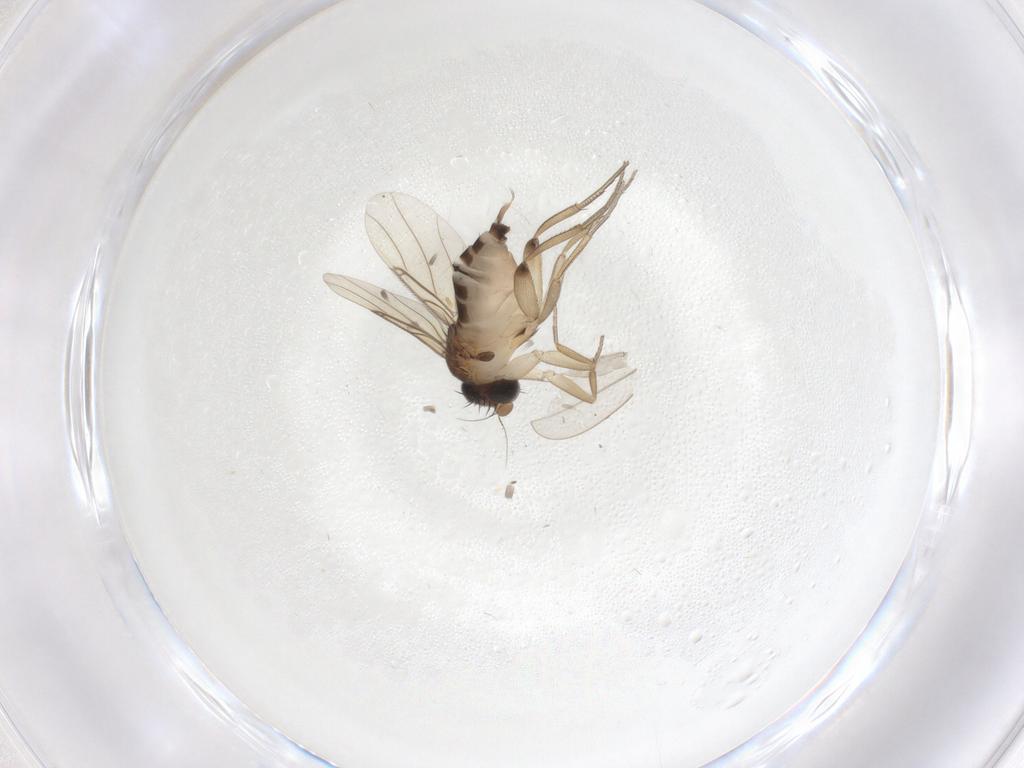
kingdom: Animalia
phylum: Arthropoda
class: Insecta
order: Diptera
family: Phoridae
